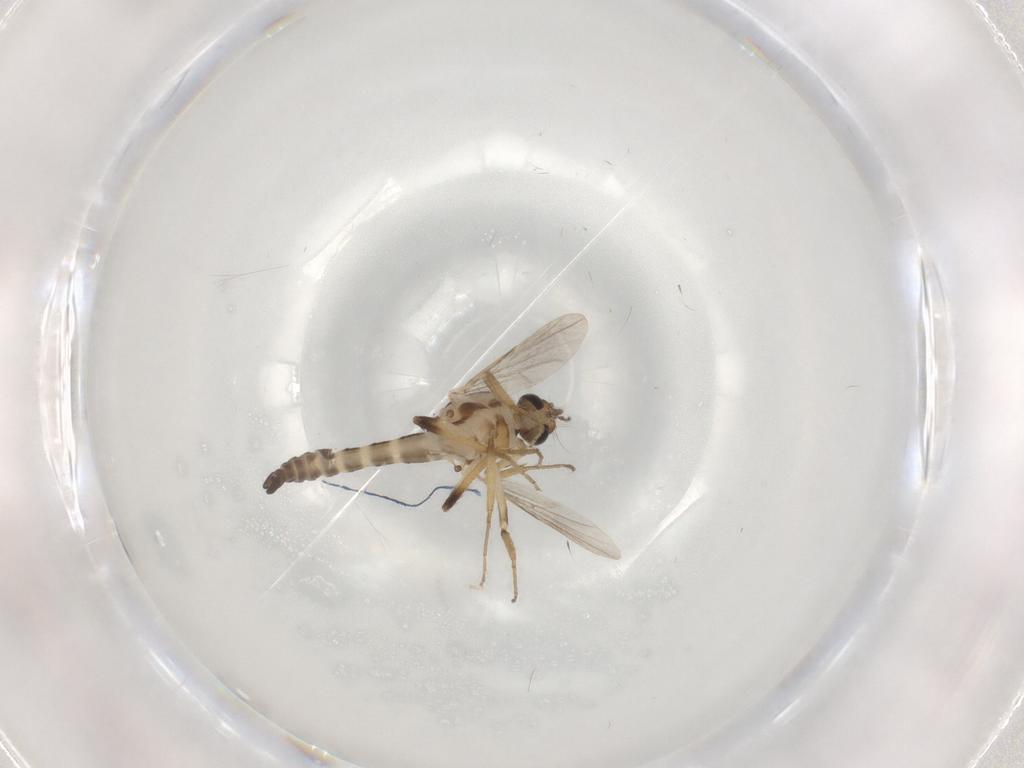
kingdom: Animalia
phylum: Arthropoda
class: Insecta
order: Diptera
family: Ceratopogonidae
